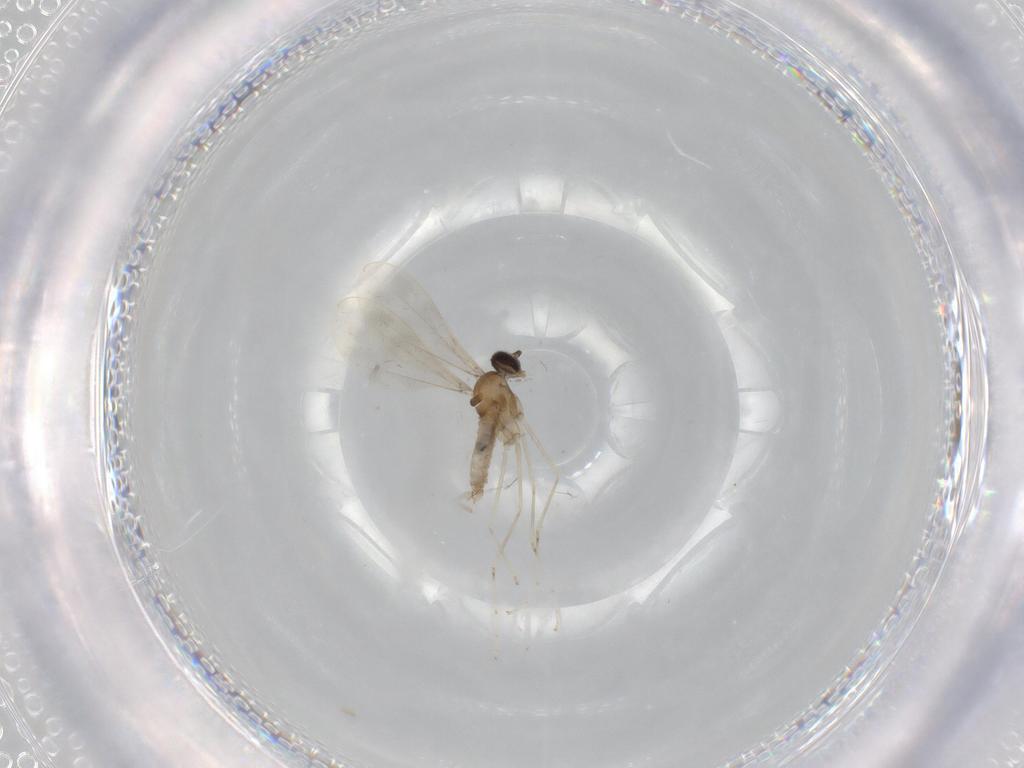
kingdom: Animalia
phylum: Arthropoda
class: Insecta
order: Diptera
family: Cecidomyiidae
